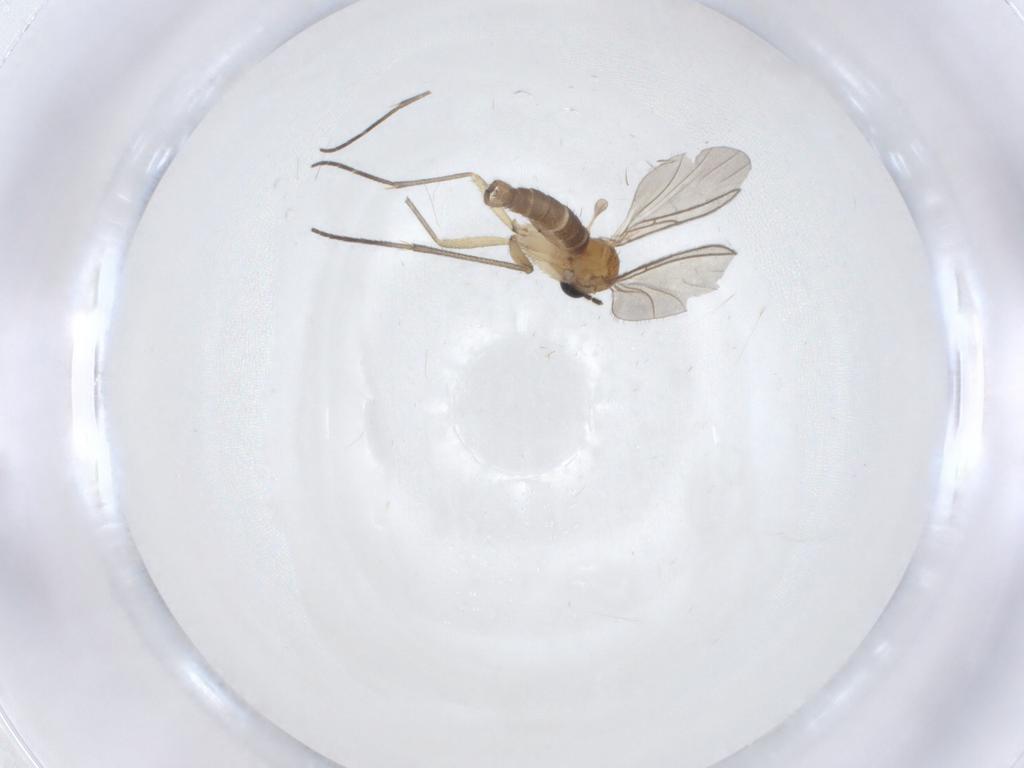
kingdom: Animalia
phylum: Arthropoda
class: Insecta
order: Diptera
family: Sciaridae
